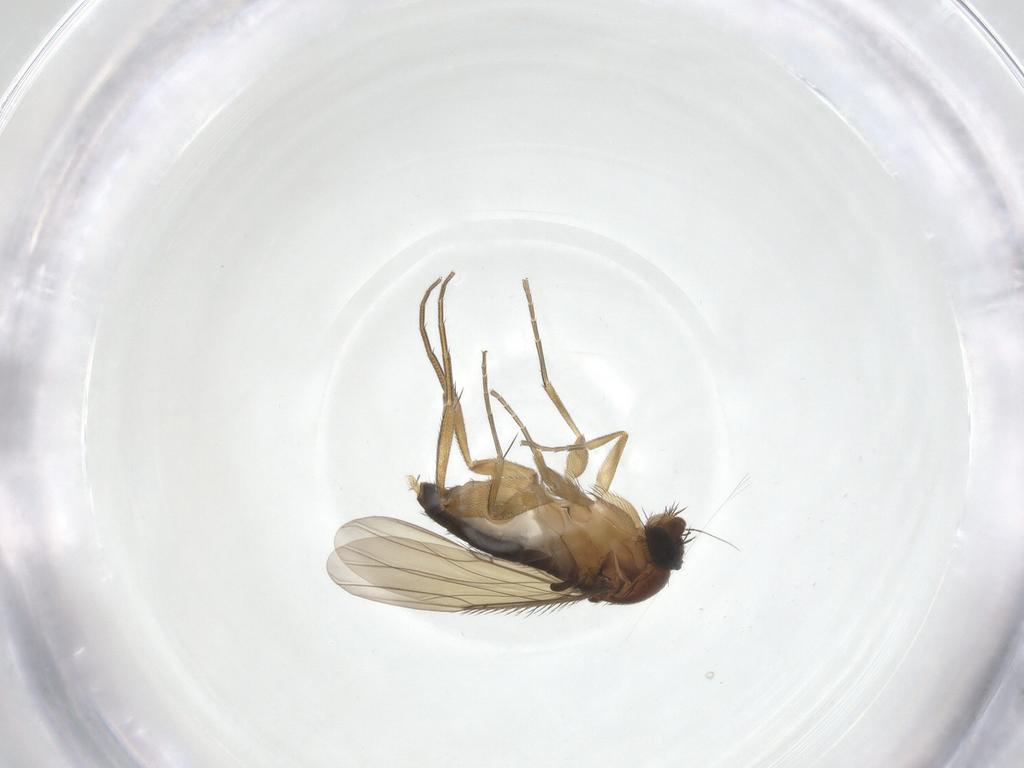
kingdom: Animalia
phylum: Arthropoda
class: Insecta
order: Diptera
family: Phoridae
